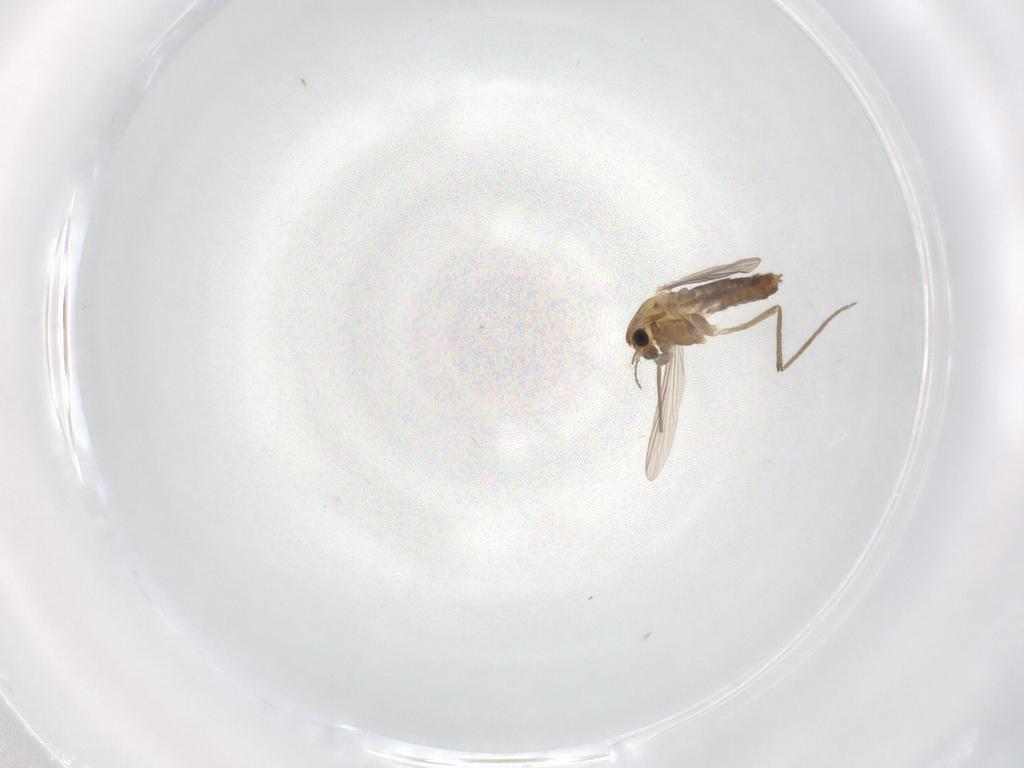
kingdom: Animalia
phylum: Arthropoda
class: Insecta
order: Diptera
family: Chironomidae
